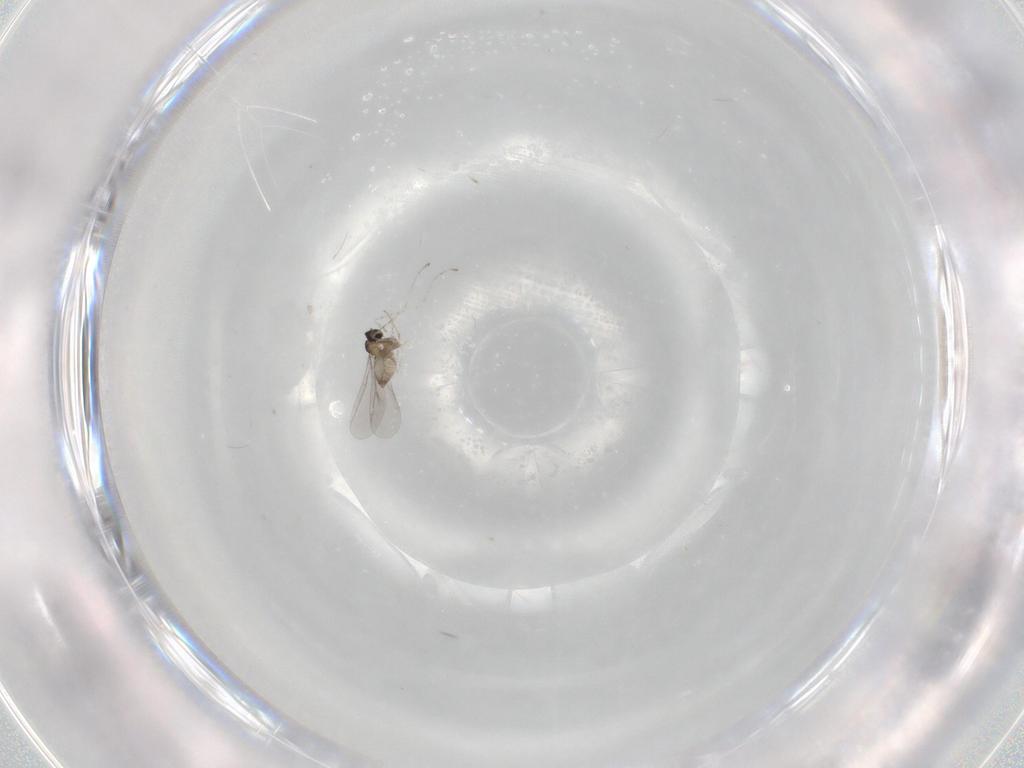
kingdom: Animalia
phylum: Arthropoda
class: Insecta
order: Diptera
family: Cecidomyiidae
